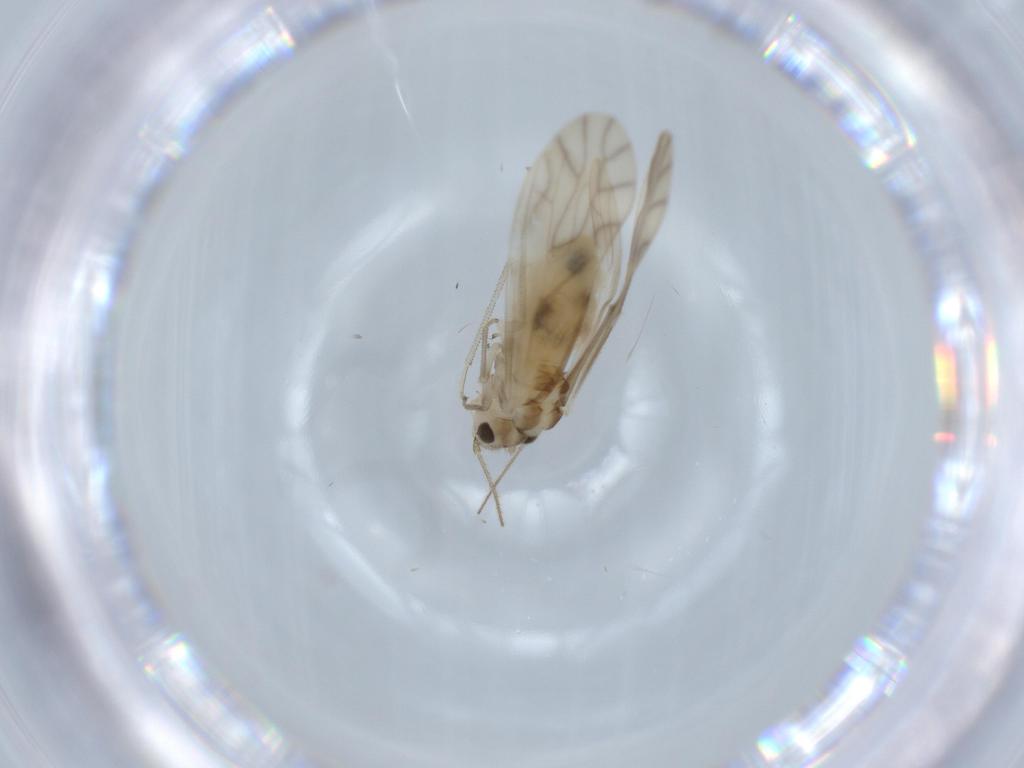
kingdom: Animalia
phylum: Arthropoda
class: Insecta
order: Psocodea
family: Caeciliusidae
